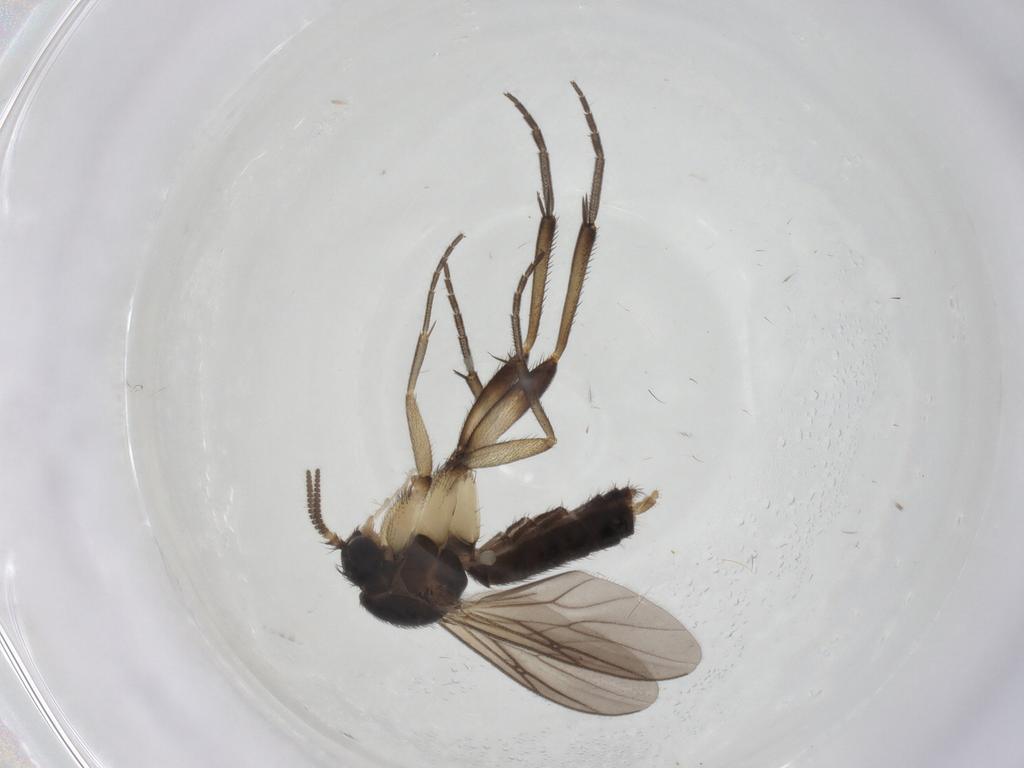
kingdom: Animalia
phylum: Arthropoda
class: Insecta
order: Diptera
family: Mycetophilidae
